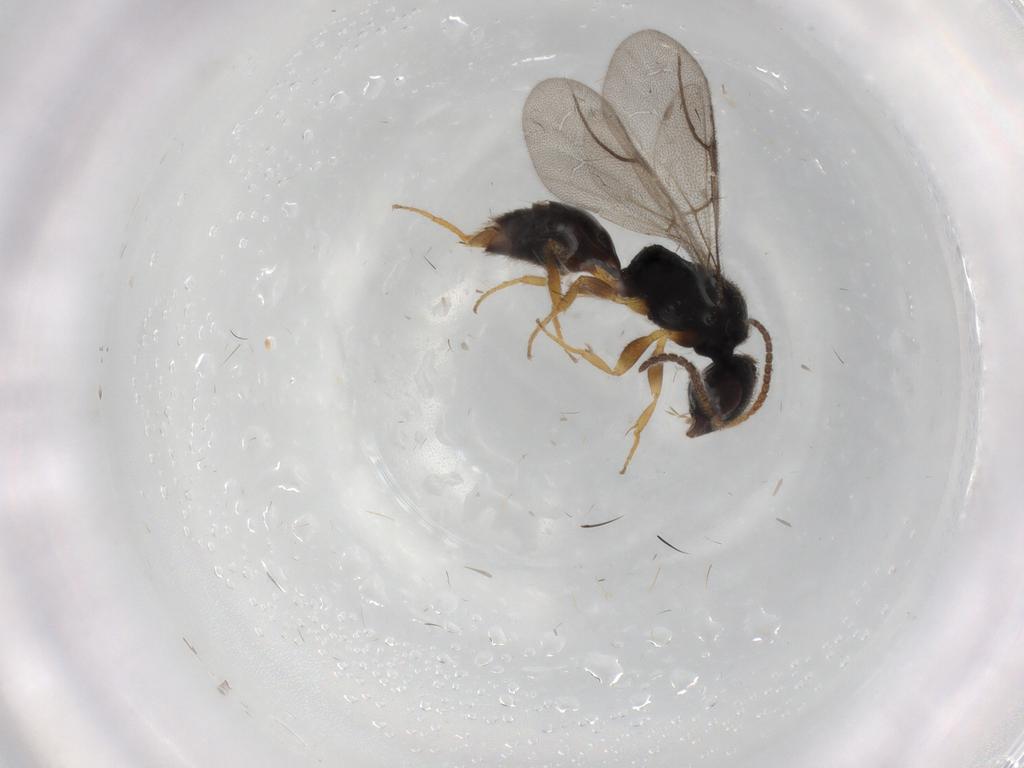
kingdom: Animalia
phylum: Arthropoda
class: Insecta
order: Hymenoptera
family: Bethylidae
